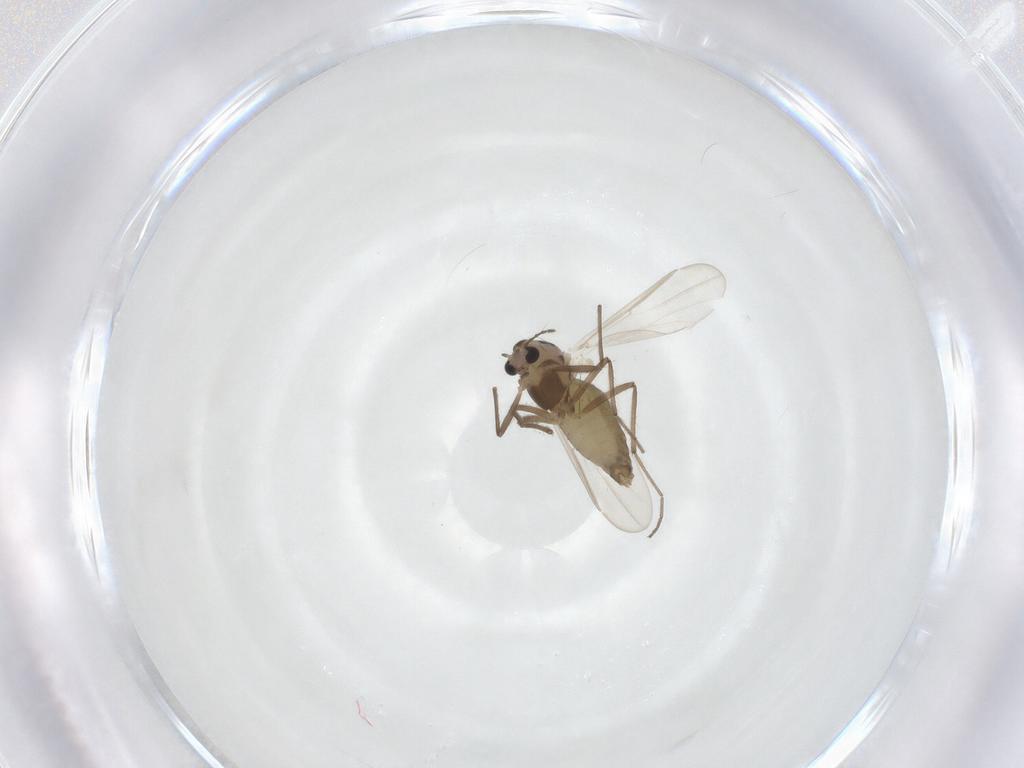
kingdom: Animalia
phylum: Arthropoda
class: Insecta
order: Diptera
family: Chironomidae
